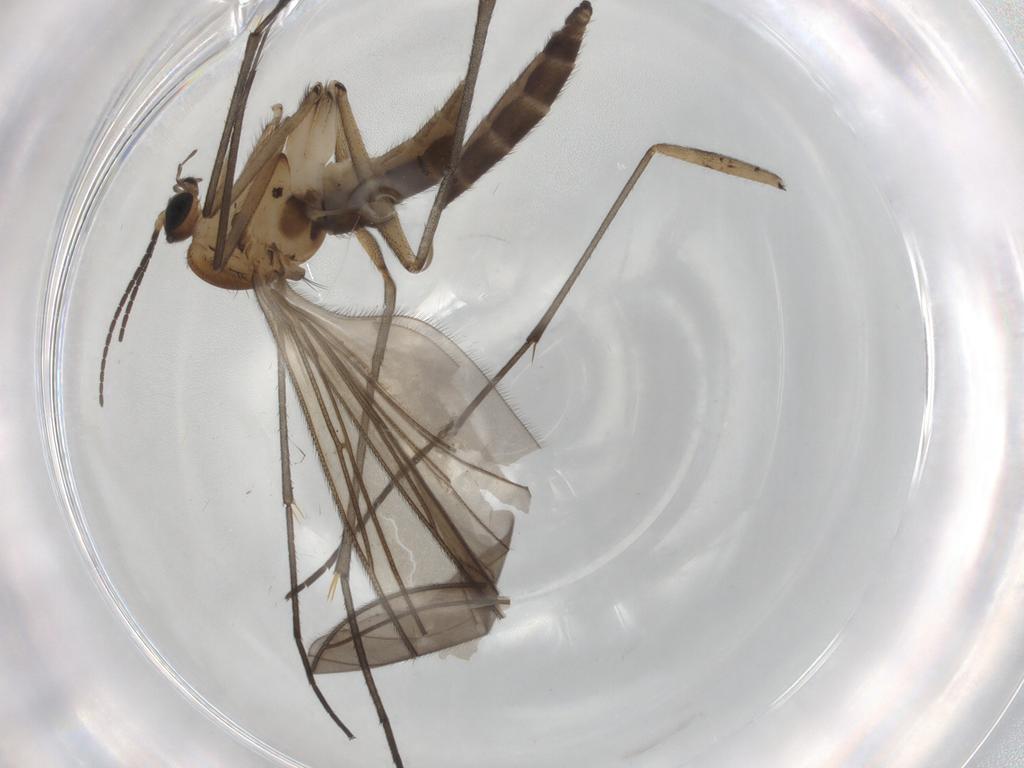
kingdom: Animalia
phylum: Arthropoda
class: Insecta
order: Diptera
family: Sciaridae
